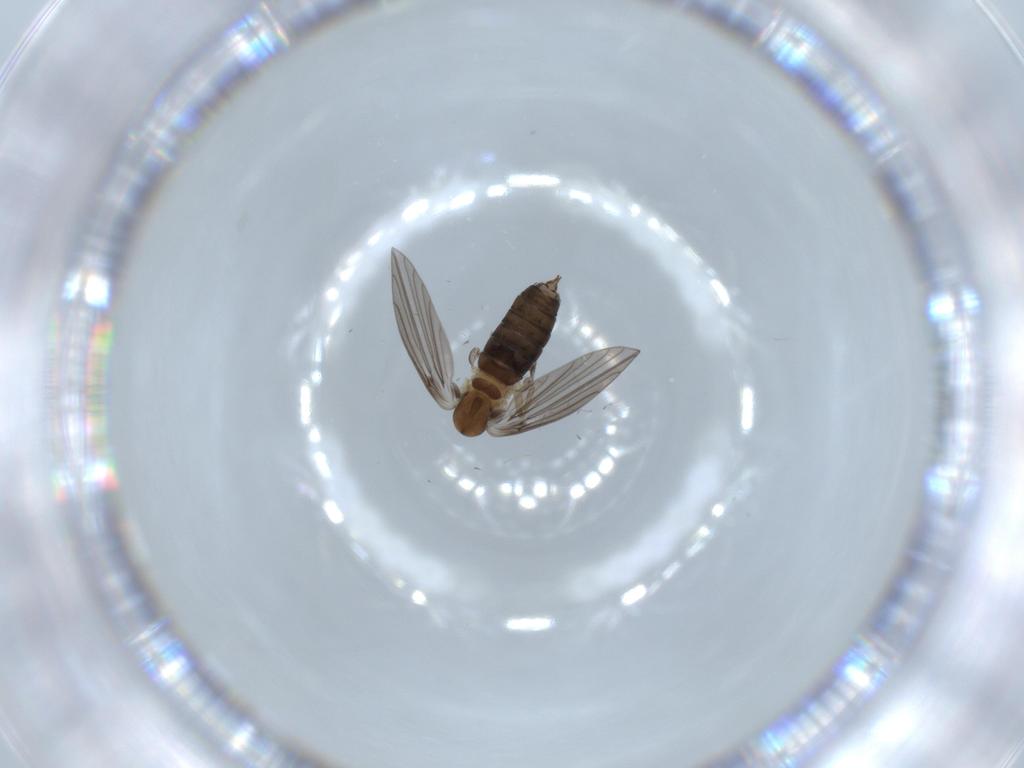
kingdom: Animalia
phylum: Arthropoda
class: Insecta
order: Diptera
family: Psychodidae
